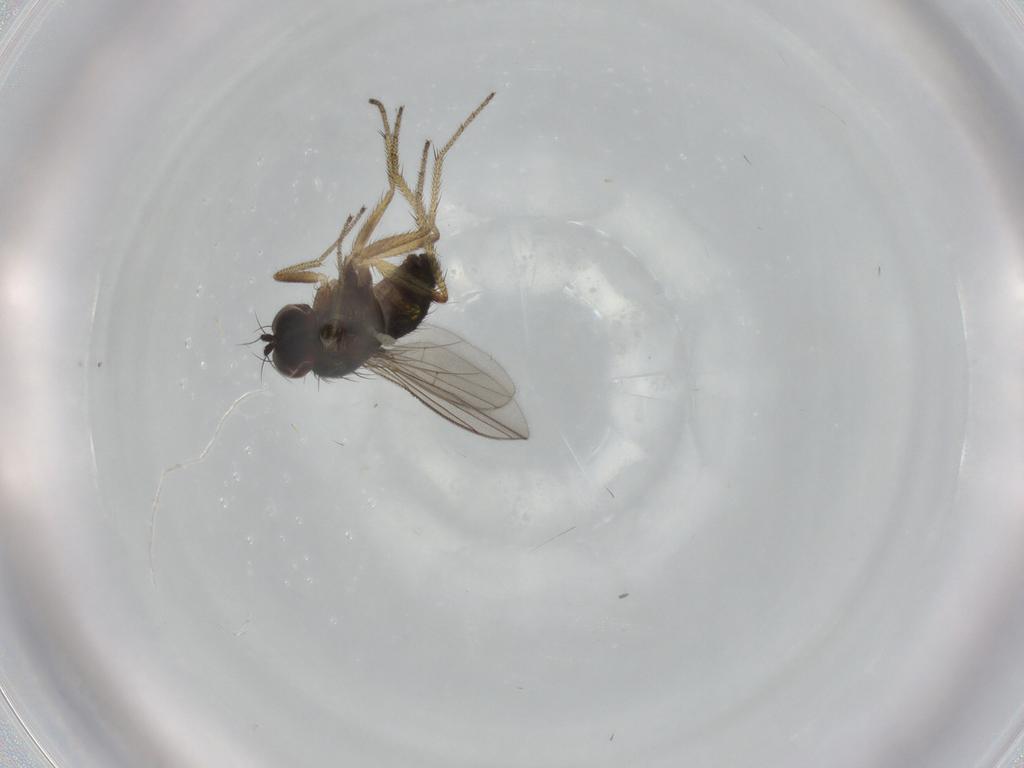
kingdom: Animalia
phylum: Arthropoda
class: Insecta
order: Diptera
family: Dolichopodidae
